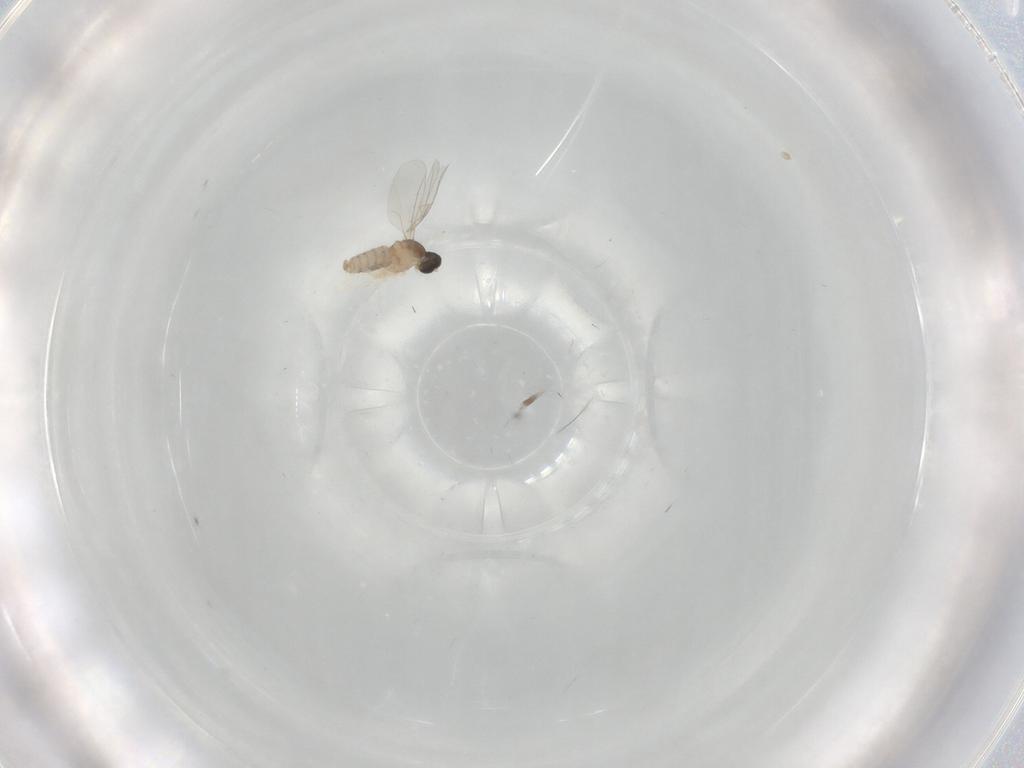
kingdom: Animalia
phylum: Arthropoda
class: Insecta
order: Diptera
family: Cecidomyiidae
